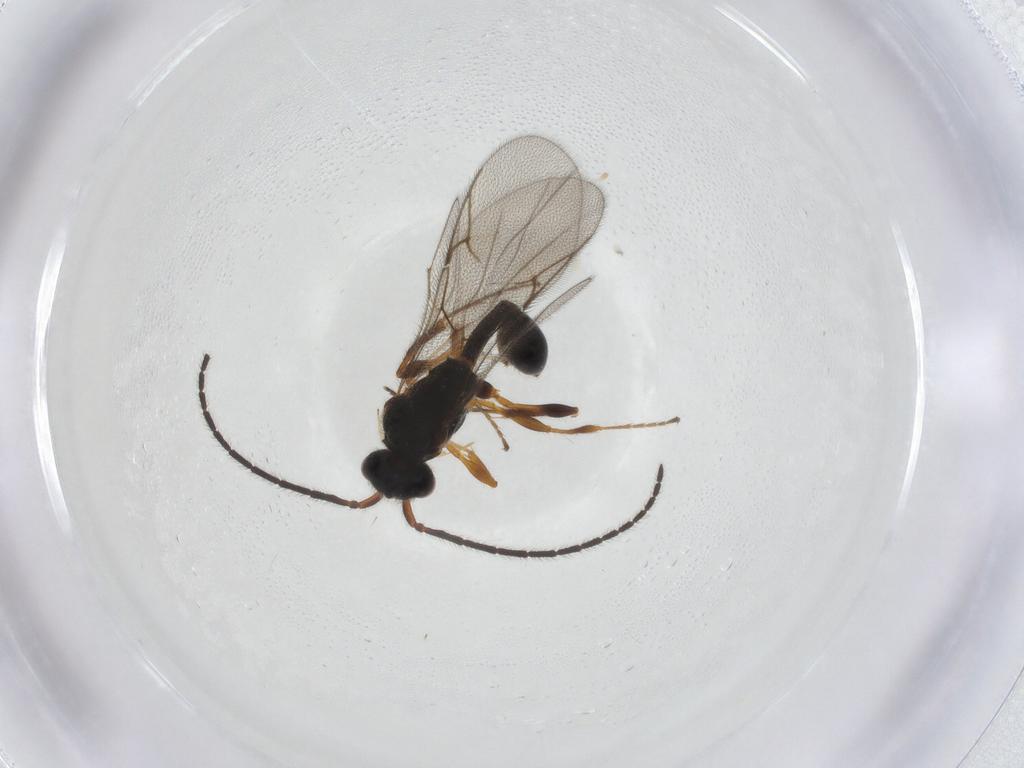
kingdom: Animalia
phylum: Arthropoda
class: Insecta
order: Hymenoptera
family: Diapriidae
